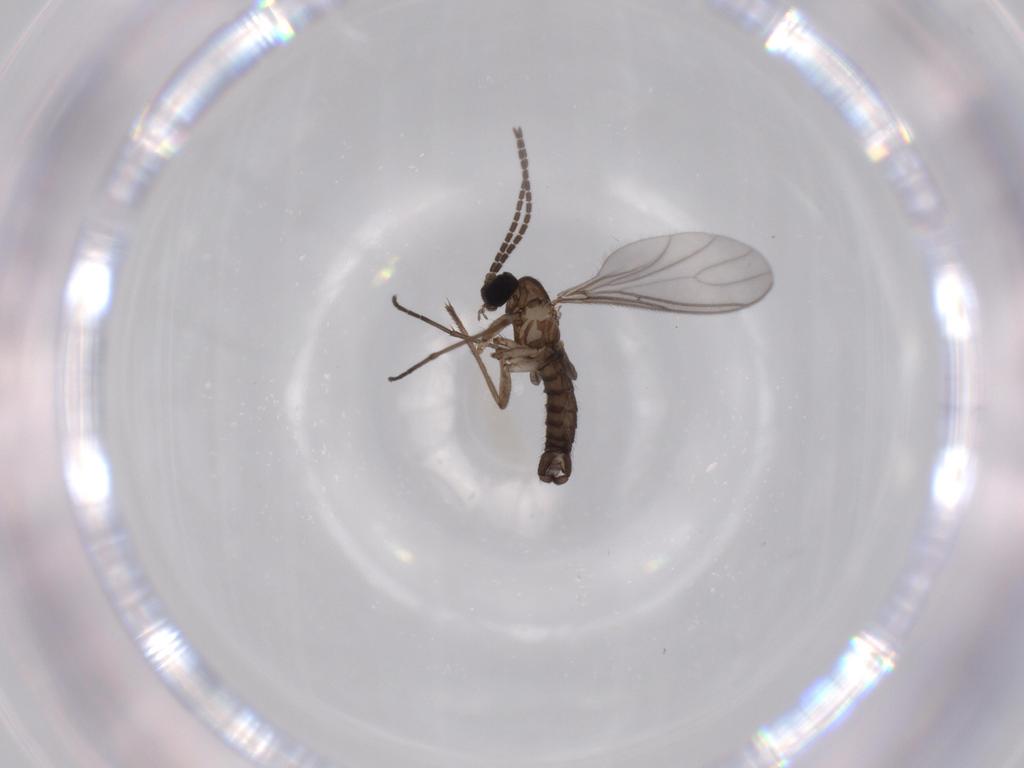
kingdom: Animalia
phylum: Arthropoda
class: Insecta
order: Diptera
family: Sciaridae
